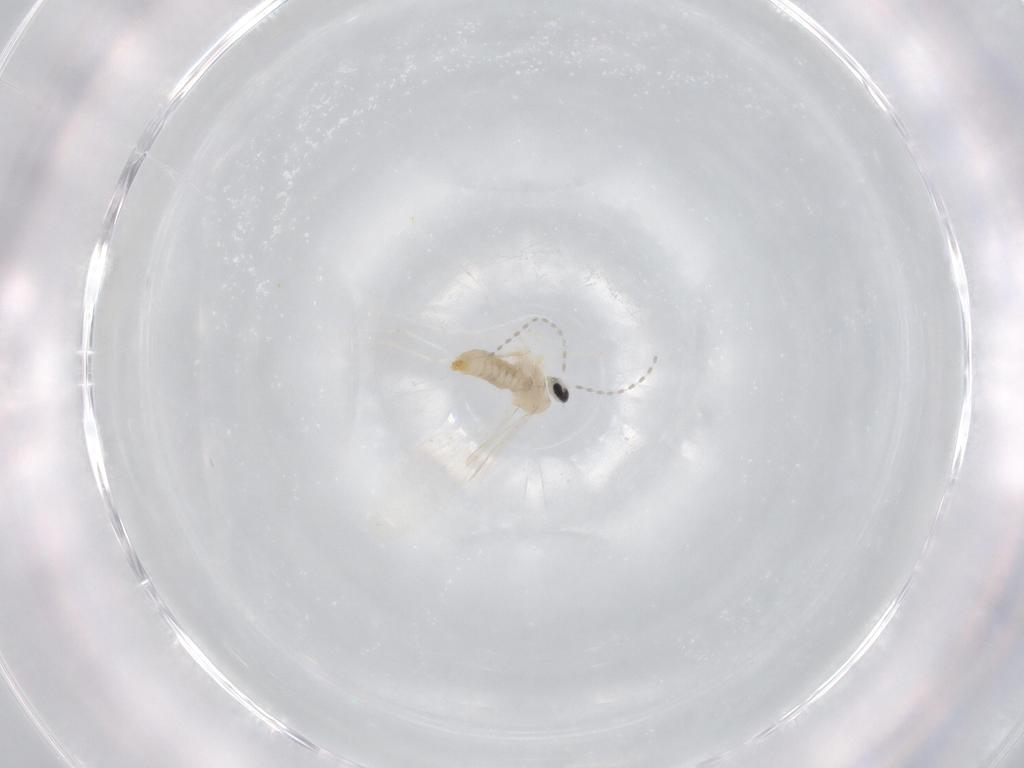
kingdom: Animalia
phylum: Arthropoda
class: Insecta
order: Diptera
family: Cecidomyiidae
